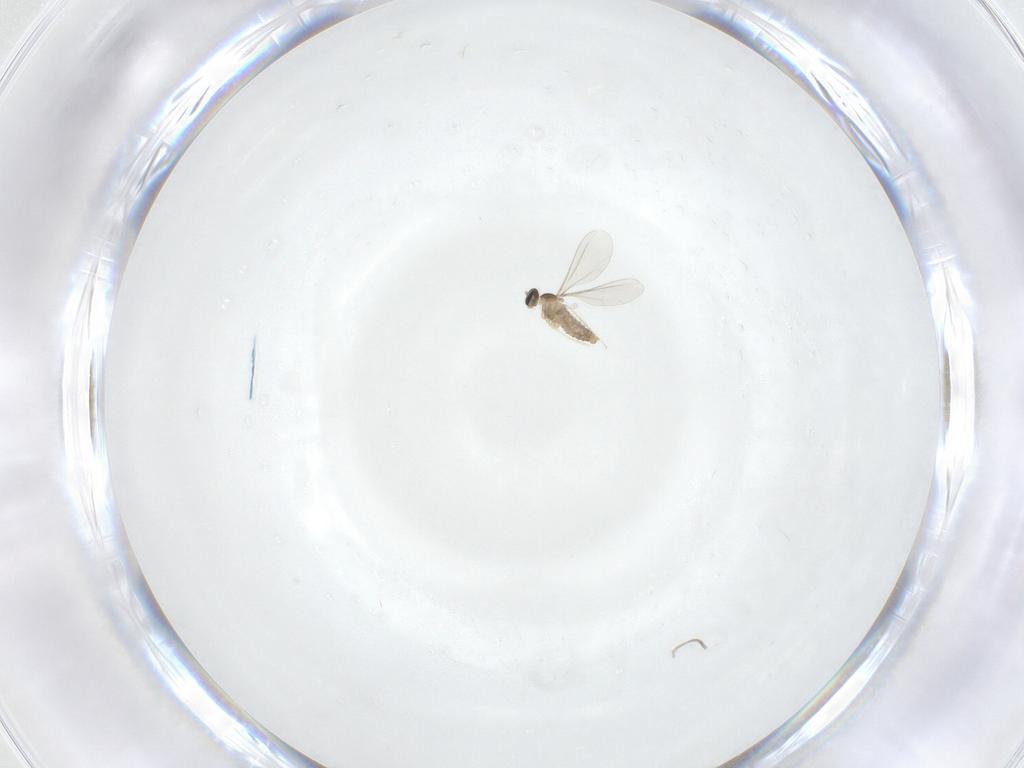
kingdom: Animalia
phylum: Arthropoda
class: Insecta
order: Diptera
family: Cecidomyiidae
